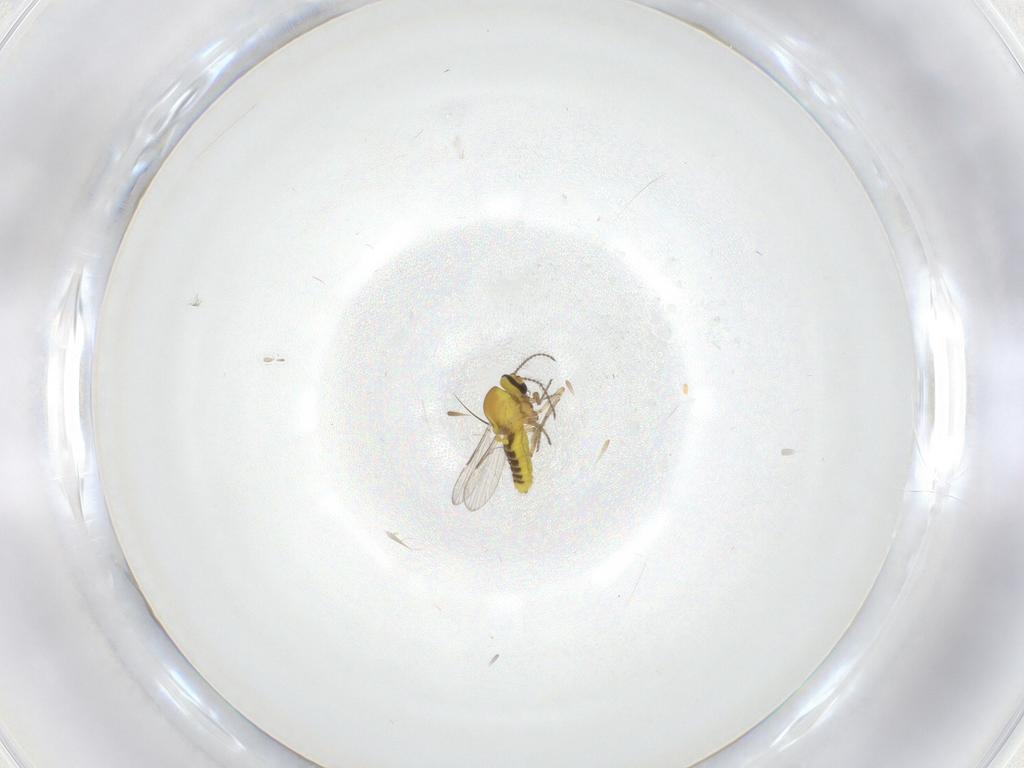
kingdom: Animalia
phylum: Arthropoda
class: Insecta
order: Diptera
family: Ceratopogonidae
